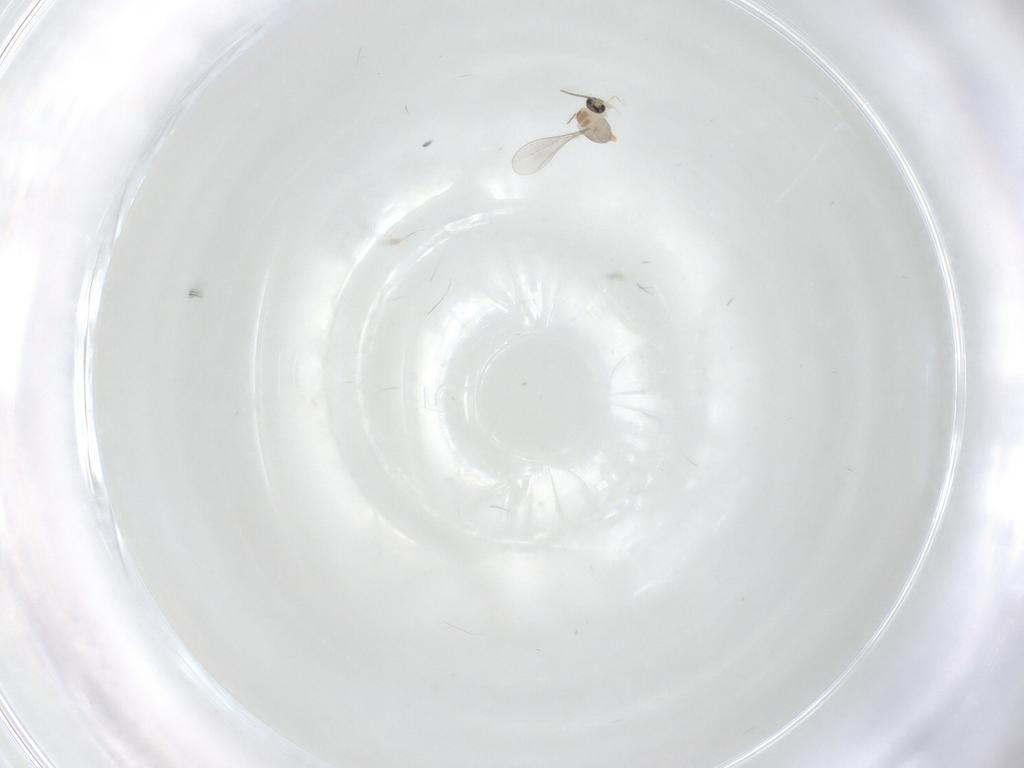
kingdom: Animalia
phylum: Arthropoda
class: Insecta
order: Diptera
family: Cecidomyiidae
